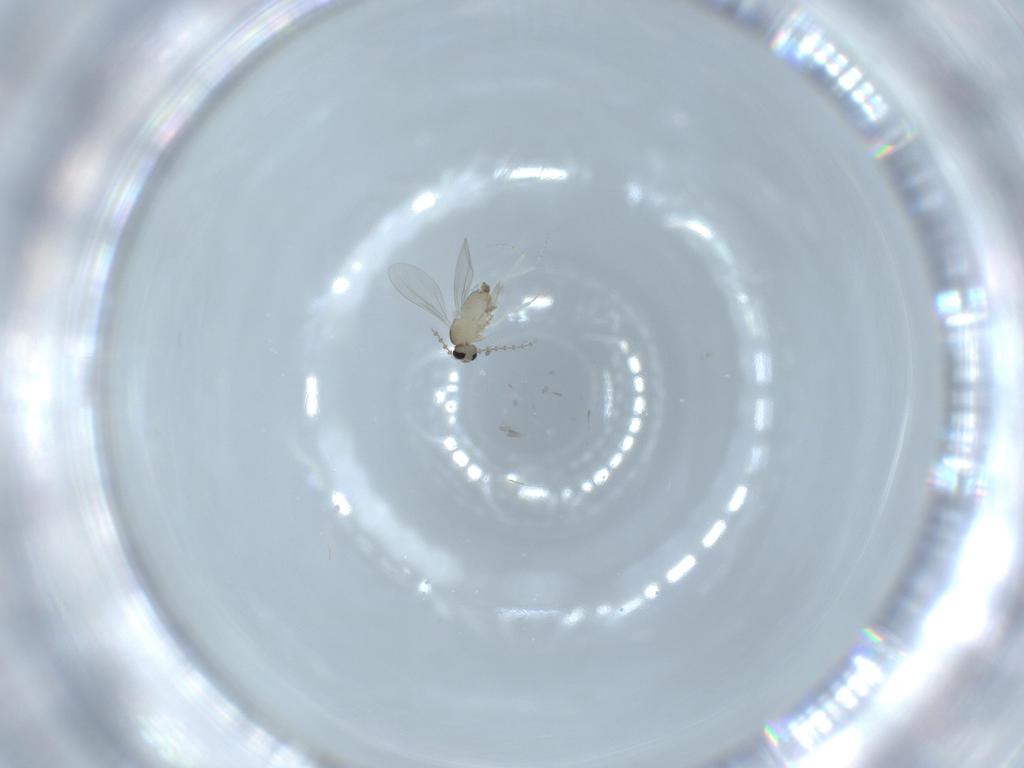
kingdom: Animalia
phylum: Arthropoda
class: Insecta
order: Diptera
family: Cecidomyiidae
